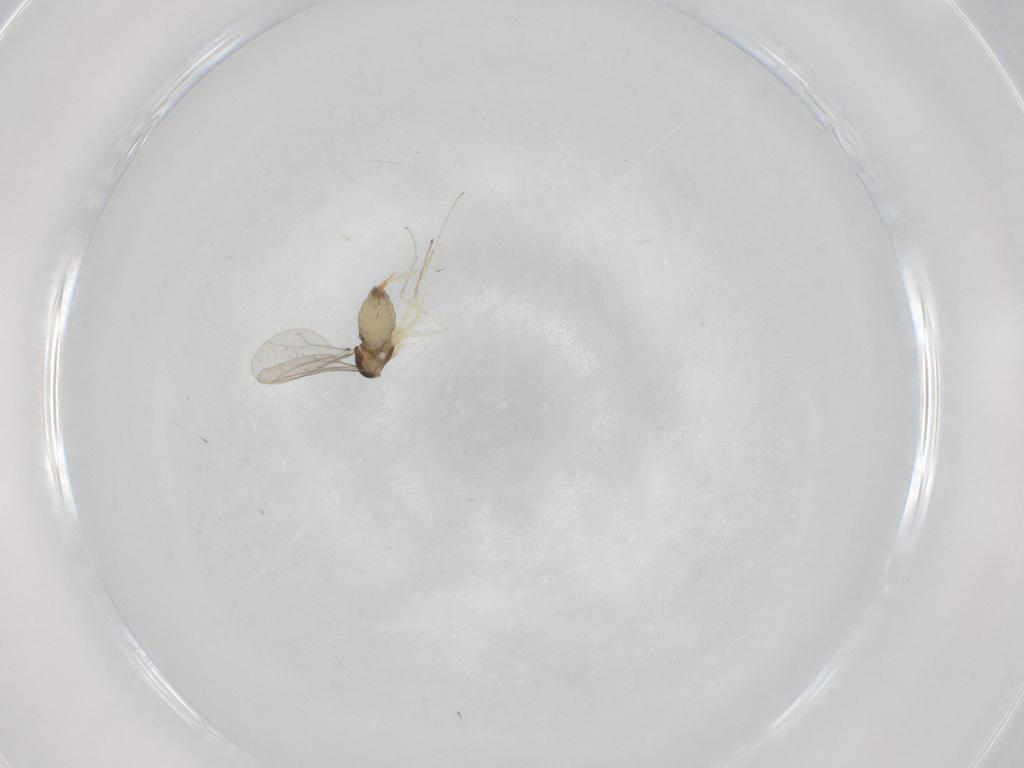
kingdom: Animalia
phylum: Arthropoda
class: Insecta
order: Diptera
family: Cecidomyiidae
